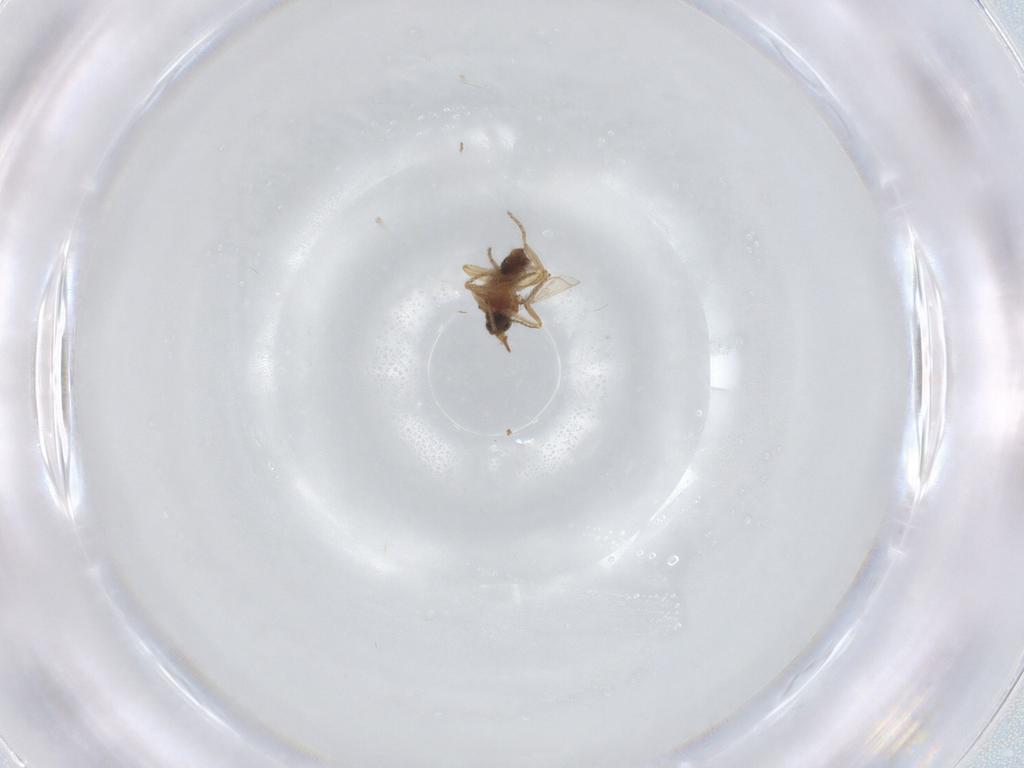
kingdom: Animalia
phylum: Arthropoda
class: Insecta
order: Diptera
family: Ceratopogonidae
